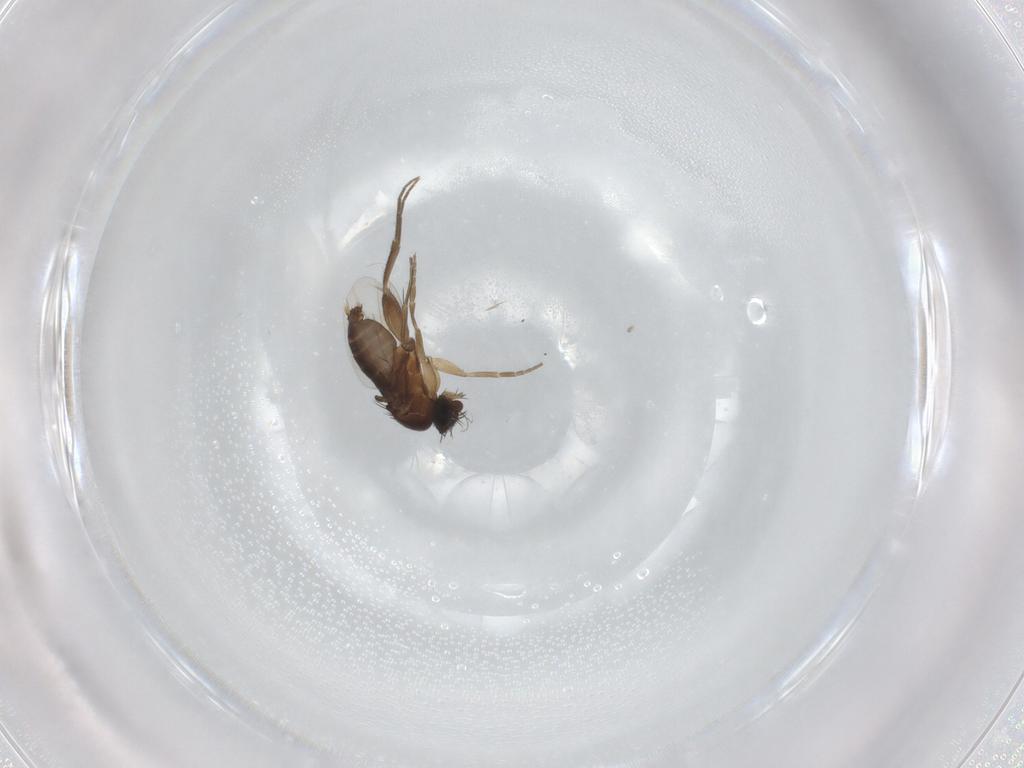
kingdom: Animalia
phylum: Arthropoda
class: Insecta
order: Diptera
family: Phoridae
